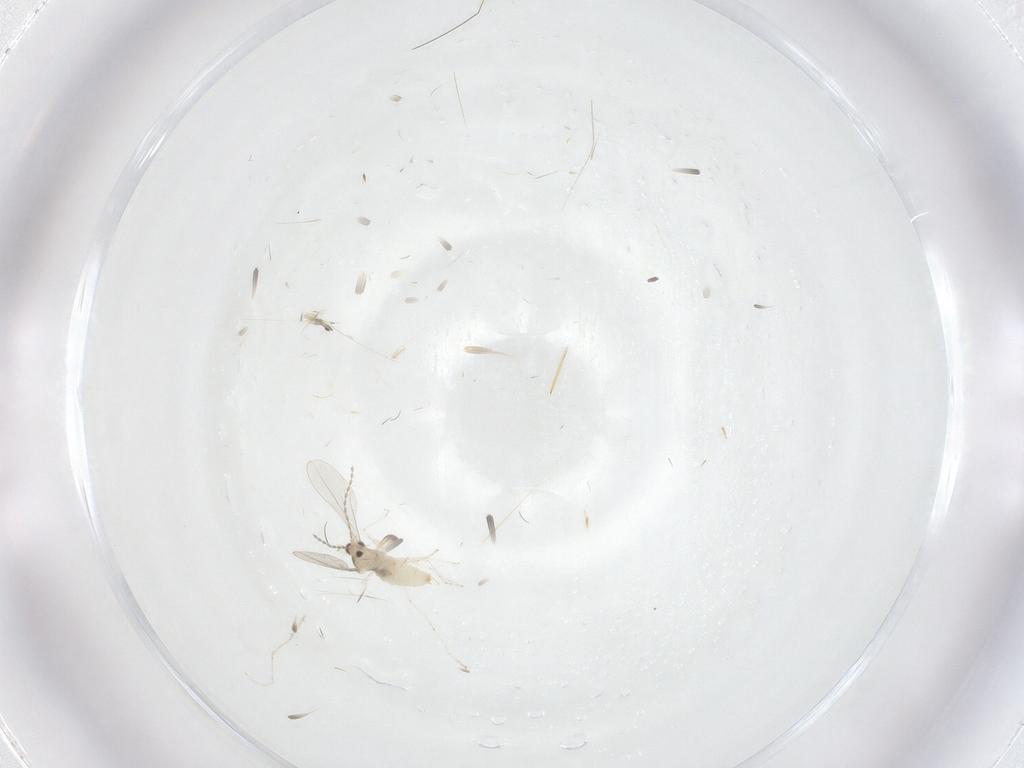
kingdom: Animalia
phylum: Arthropoda
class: Insecta
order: Diptera
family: Cecidomyiidae
